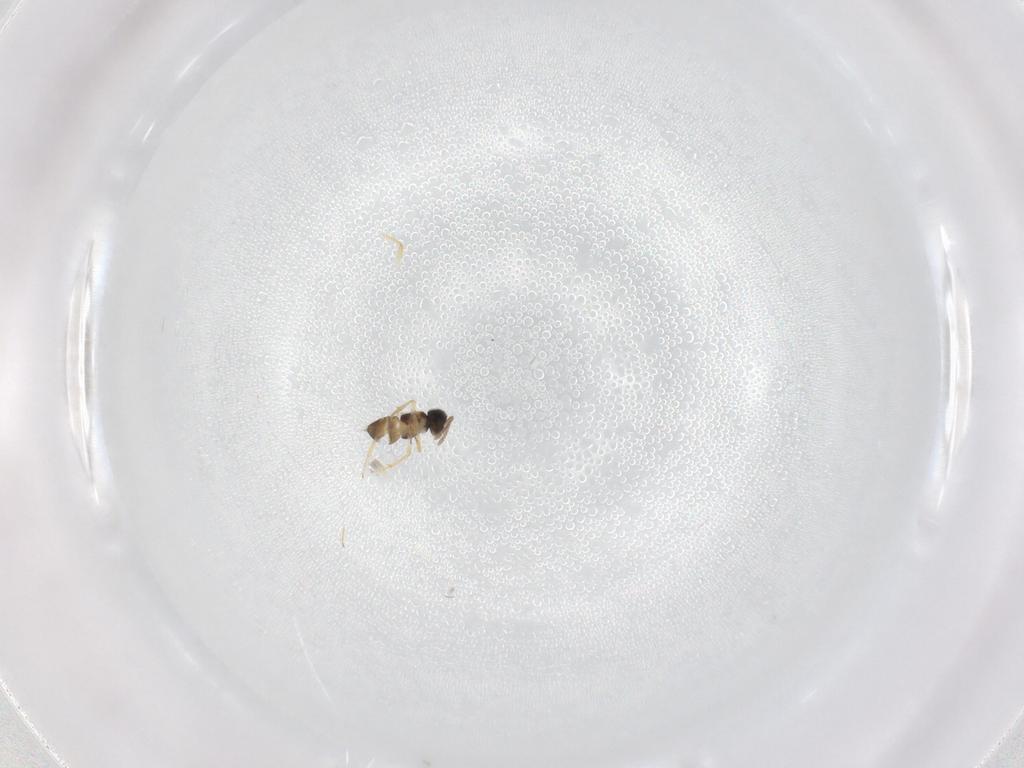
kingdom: Animalia
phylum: Arthropoda
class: Insecta
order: Hymenoptera
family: Mymaridae
